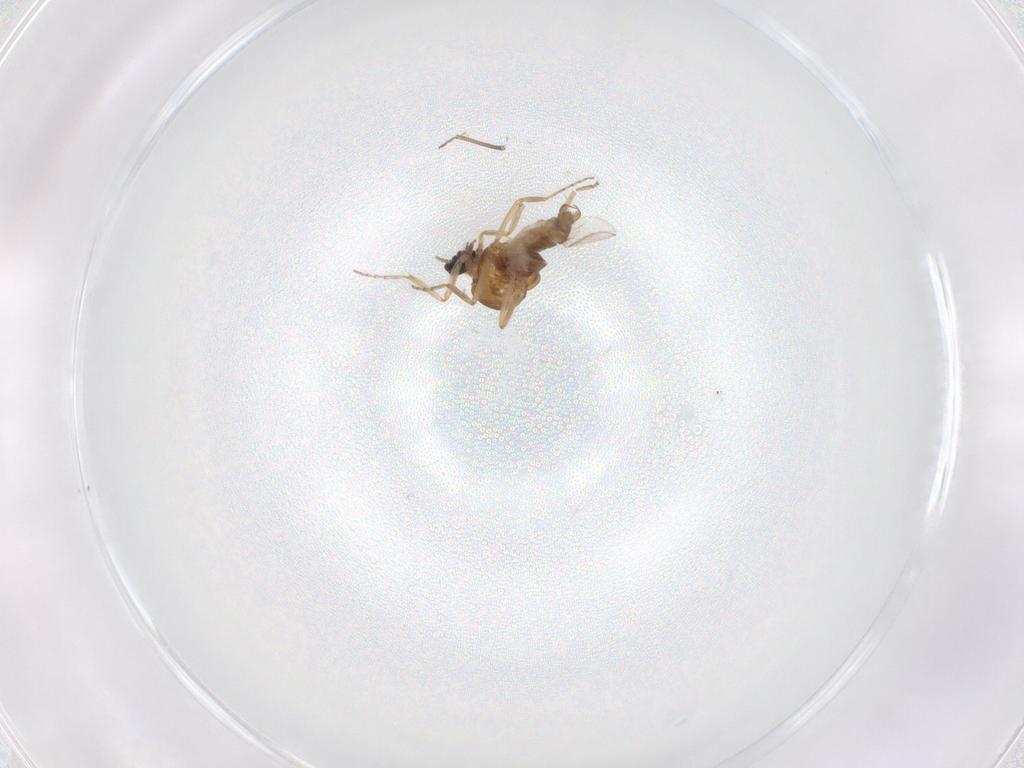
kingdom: Animalia
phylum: Arthropoda
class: Insecta
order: Diptera
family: Chironomidae
